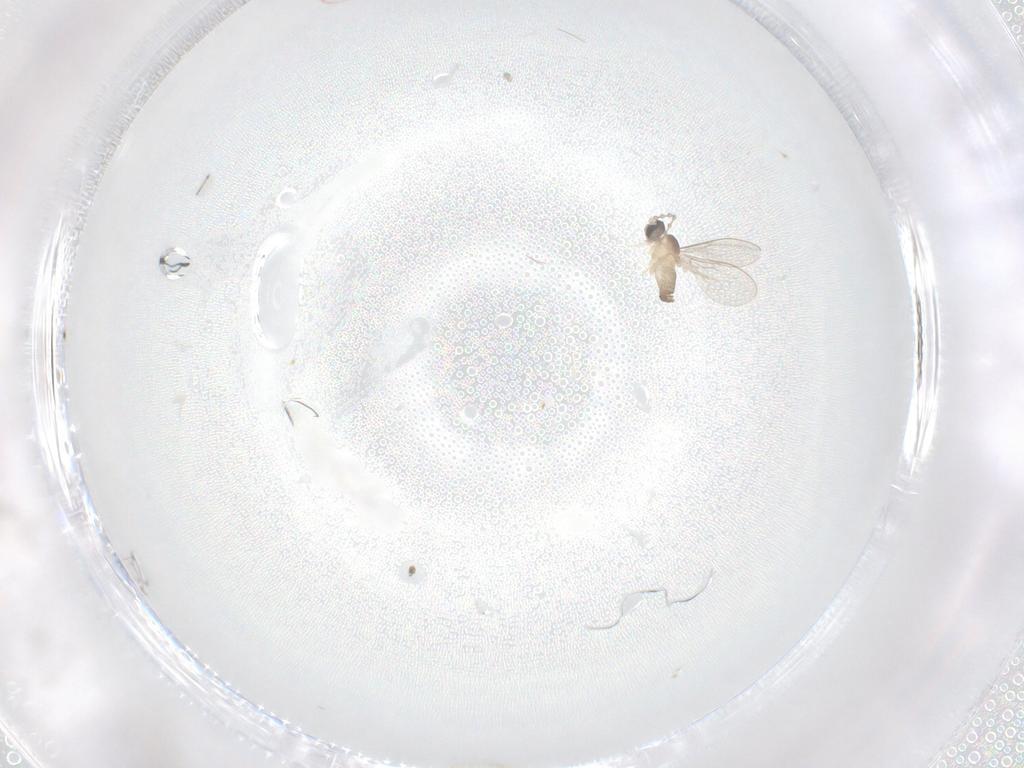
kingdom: Animalia
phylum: Arthropoda
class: Insecta
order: Diptera
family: Cecidomyiidae
